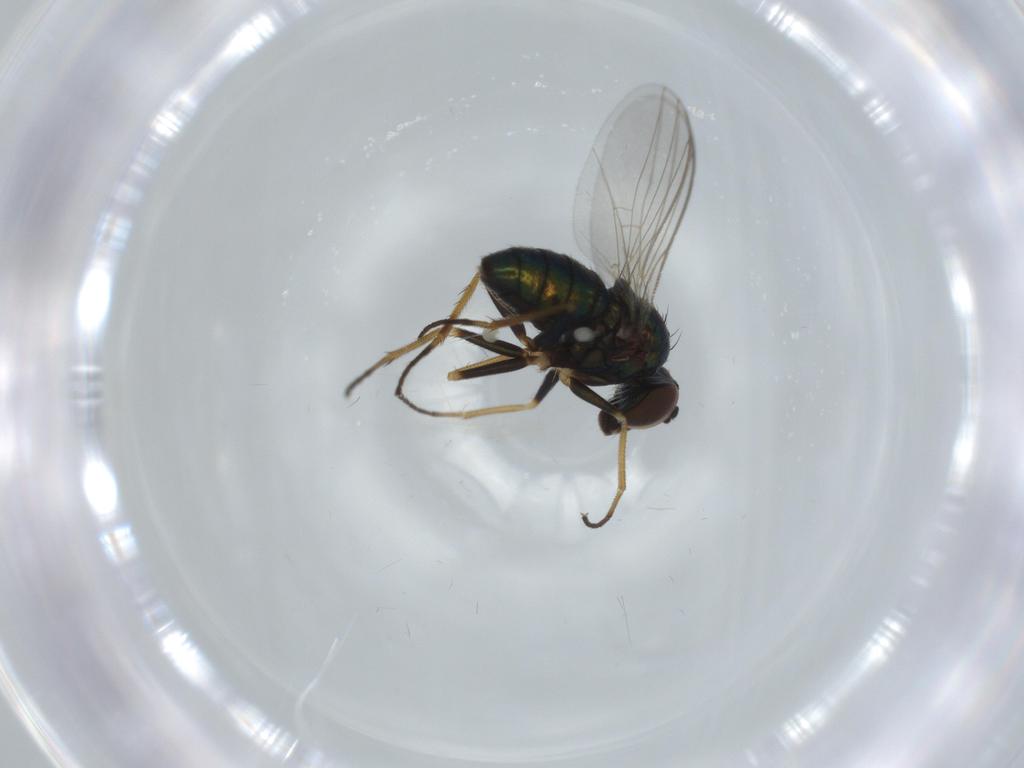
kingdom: Animalia
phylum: Arthropoda
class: Insecta
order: Diptera
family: Dolichopodidae
